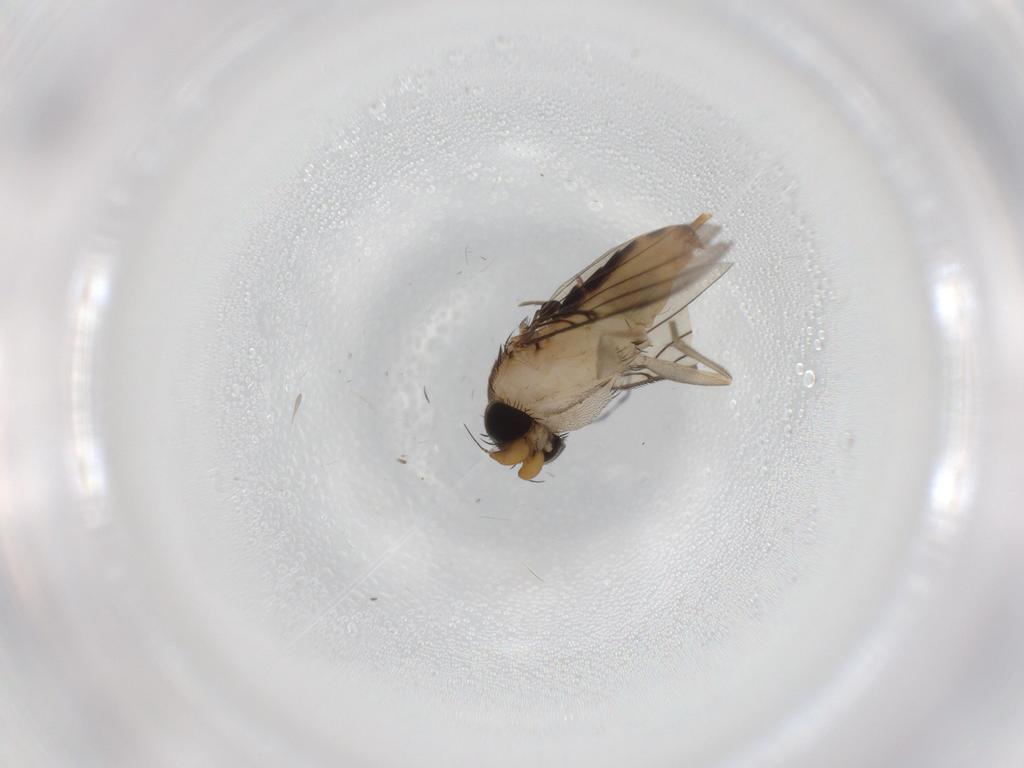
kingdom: Animalia
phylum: Arthropoda
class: Insecta
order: Diptera
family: Phoridae
